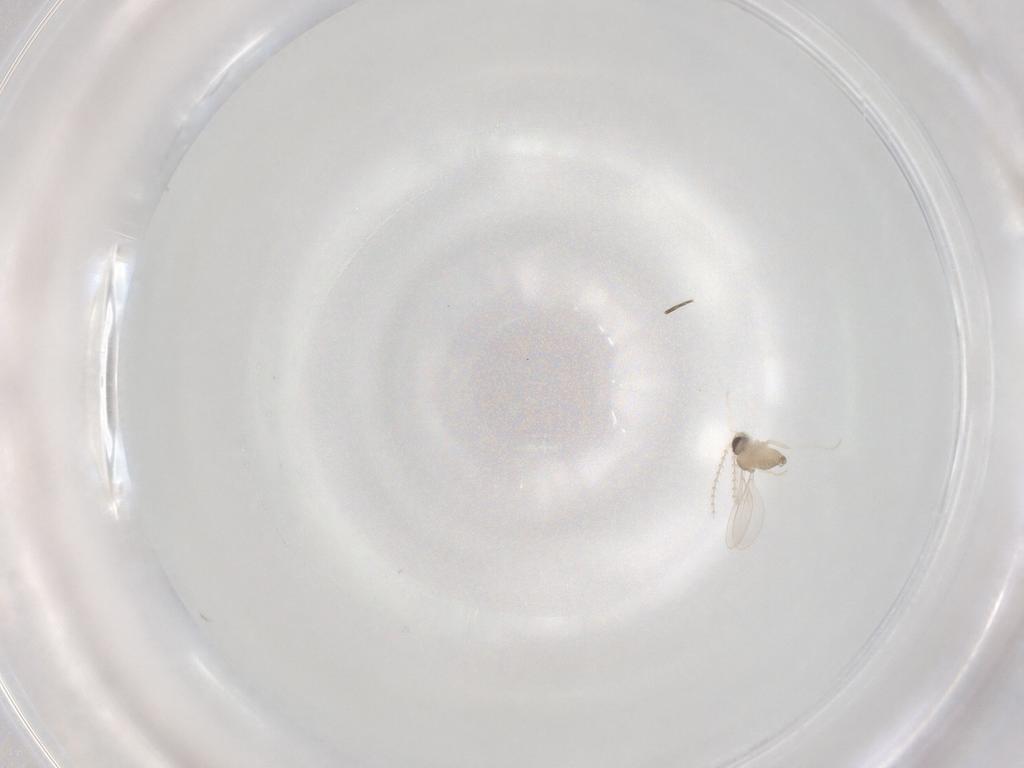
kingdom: Animalia
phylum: Arthropoda
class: Insecta
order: Diptera
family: Cecidomyiidae
